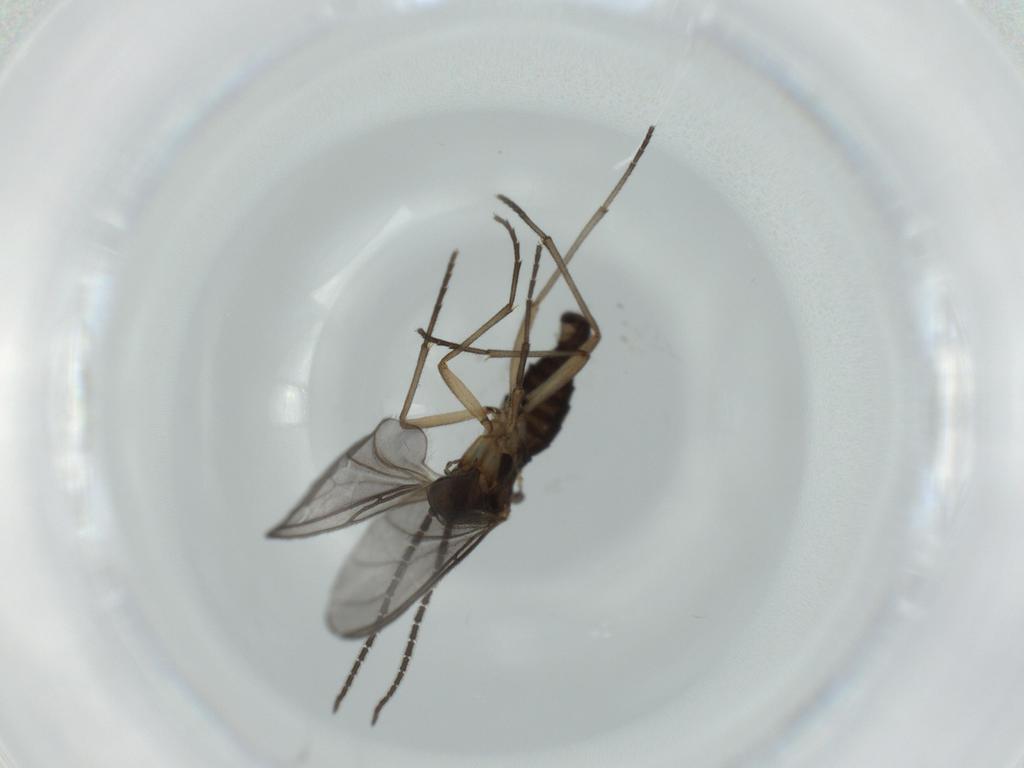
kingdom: Animalia
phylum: Arthropoda
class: Insecta
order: Diptera
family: Sciaridae
